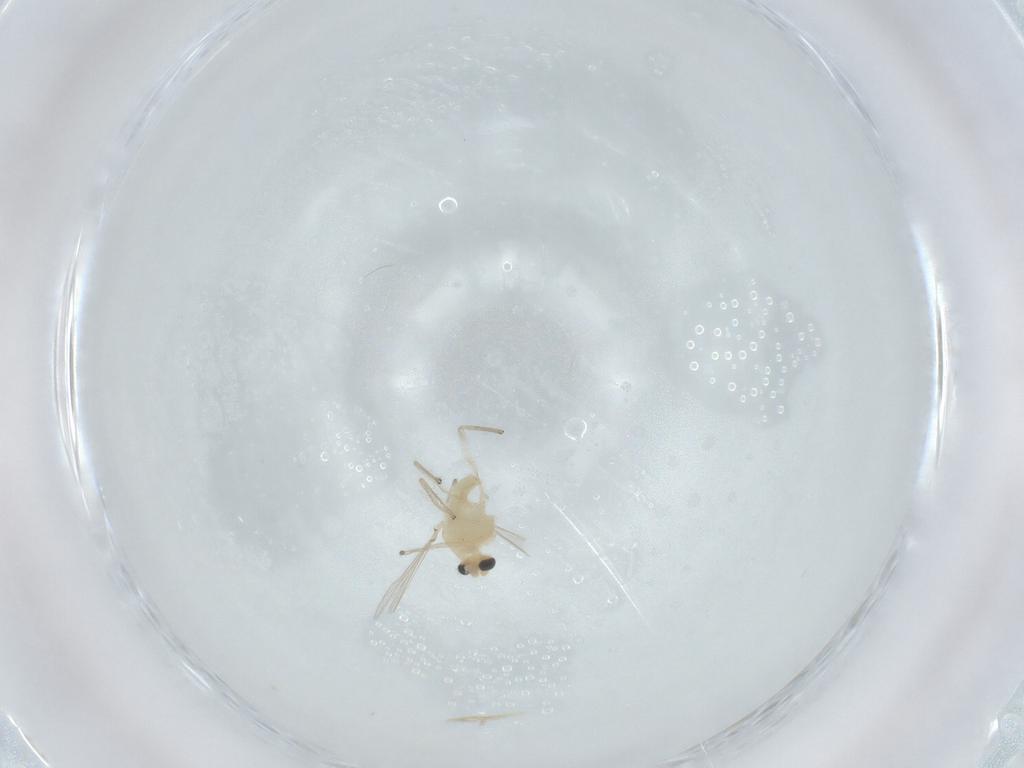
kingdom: Animalia
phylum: Arthropoda
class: Insecta
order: Diptera
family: Chironomidae
